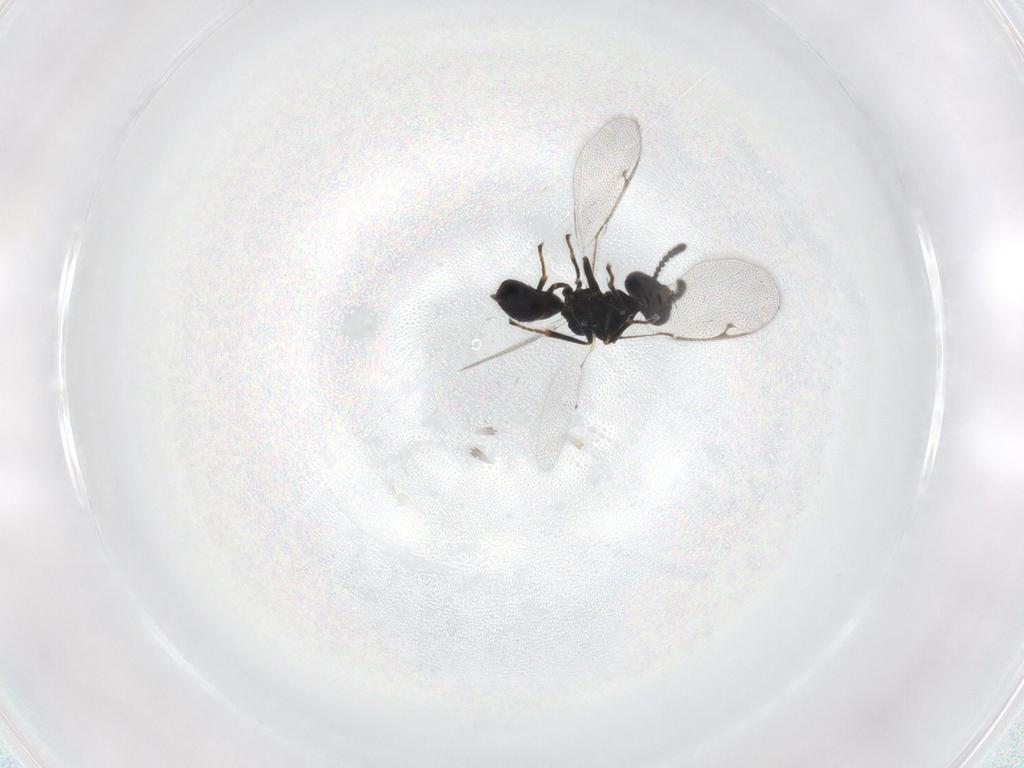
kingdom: Animalia
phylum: Arthropoda
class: Insecta
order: Hymenoptera
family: Pteromalidae
